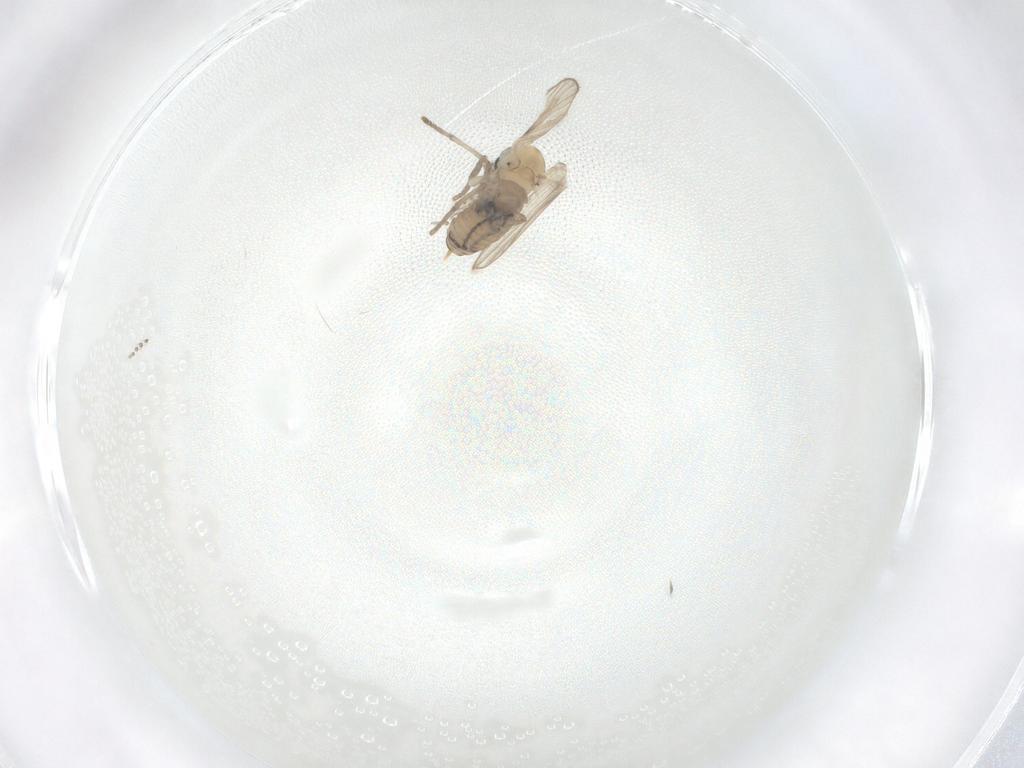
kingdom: Animalia
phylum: Arthropoda
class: Insecta
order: Diptera
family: Psychodidae
